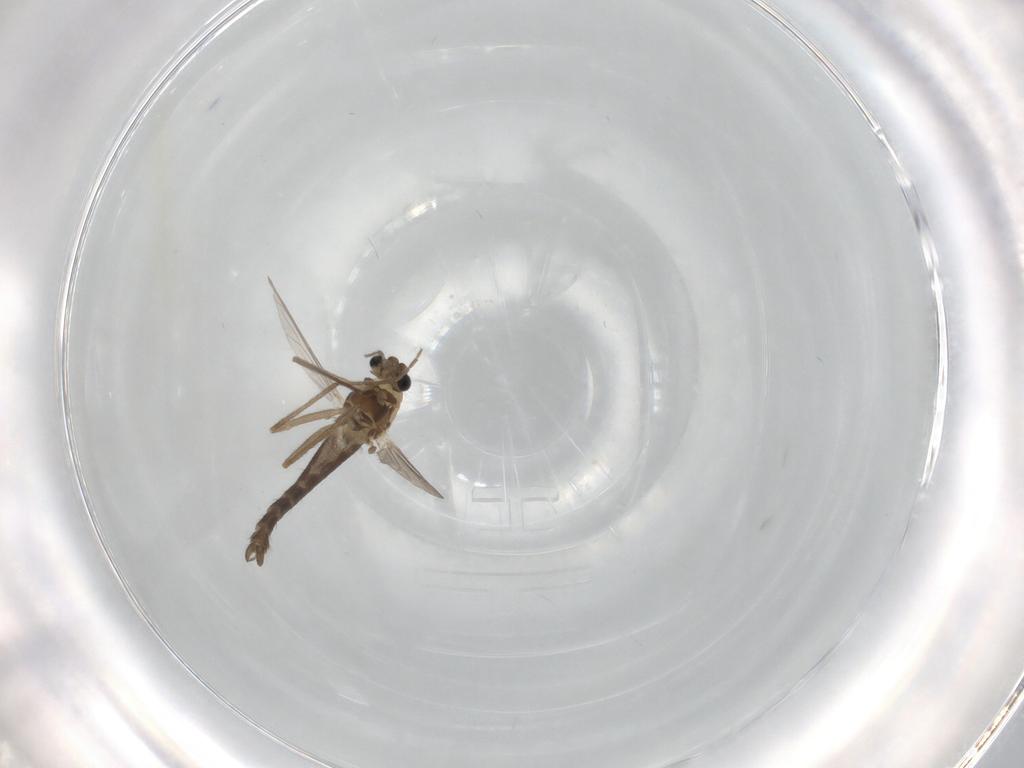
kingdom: Animalia
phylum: Arthropoda
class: Insecta
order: Diptera
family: Chironomidae
